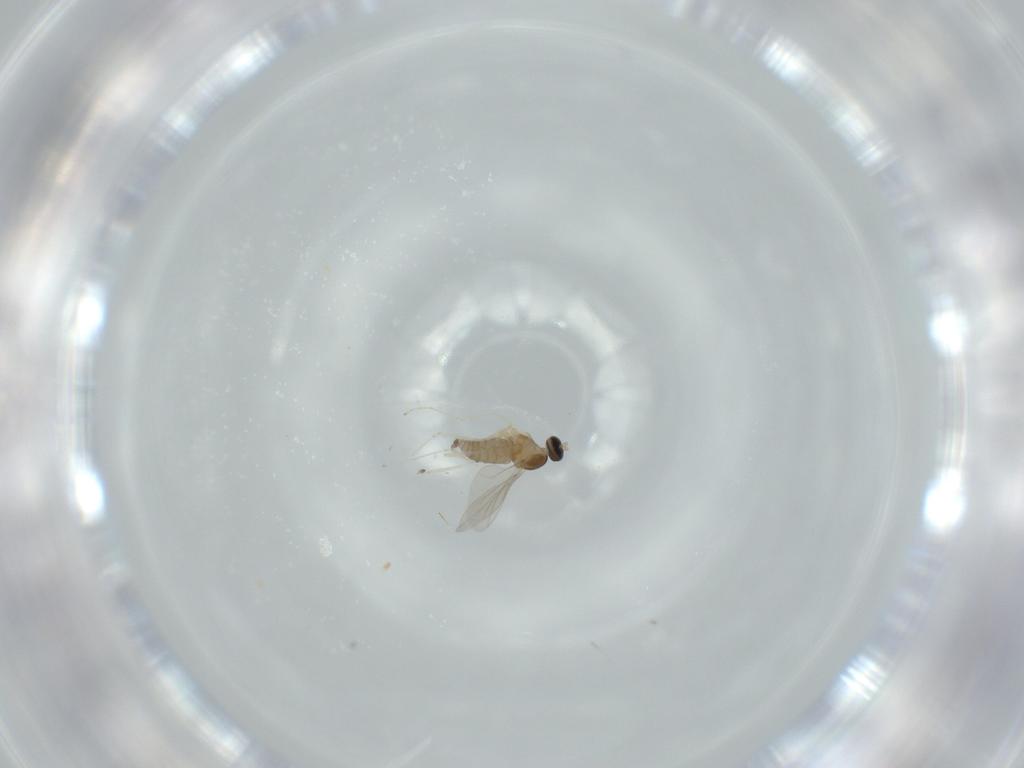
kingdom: Animalia
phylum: Arthropoda
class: Insecta
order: Diptera
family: Cecidomyiidae
